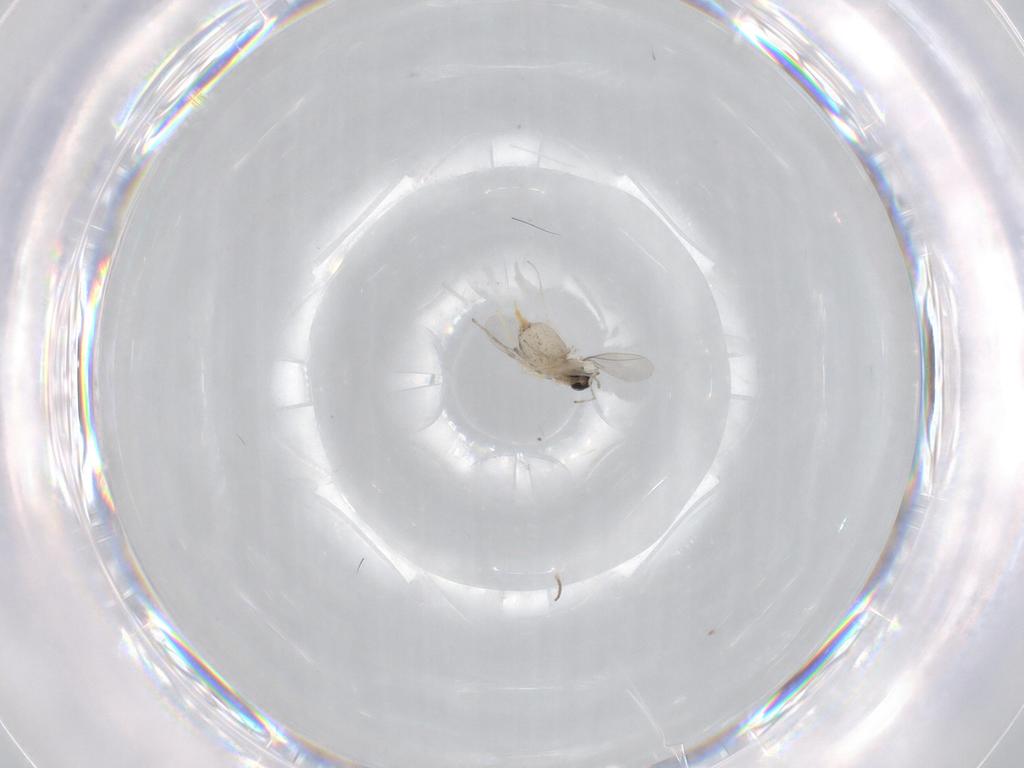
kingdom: Animalia
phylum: Arthropoda
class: Insecta
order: Diptera
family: Cecidomyiidae
